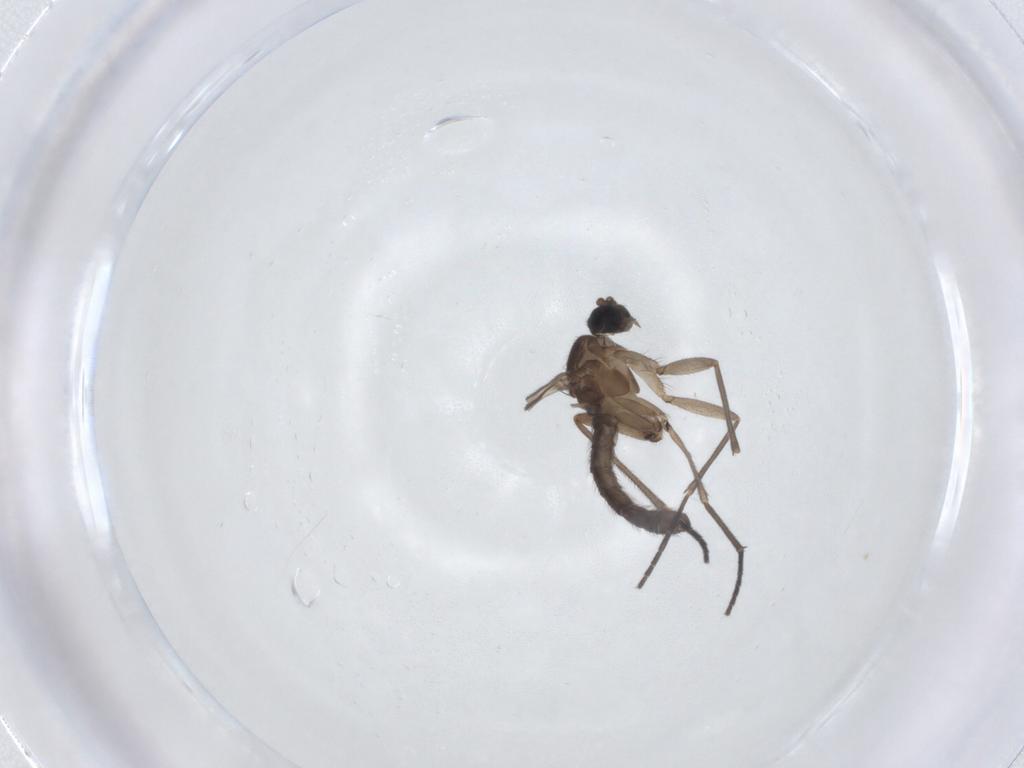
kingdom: Animalia
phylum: Arthropoda
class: Insecta
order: Diptera
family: Sciaridae
